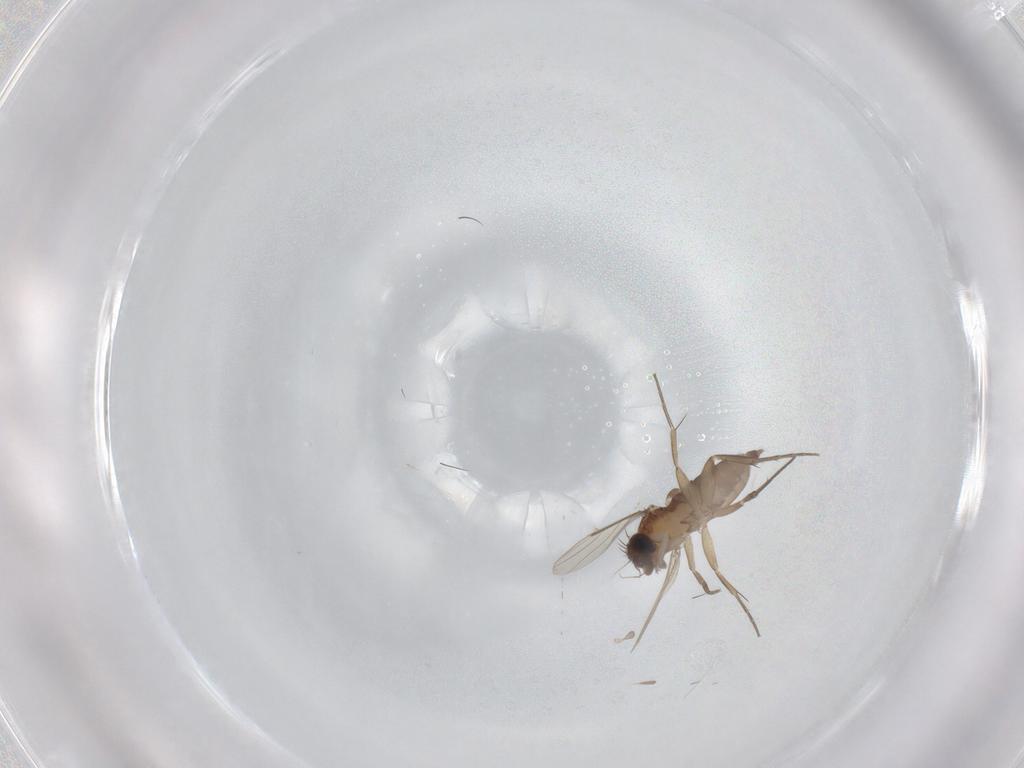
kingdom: Animalia
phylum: Arthropoda
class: Insecta
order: Diptera
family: Phoridae
